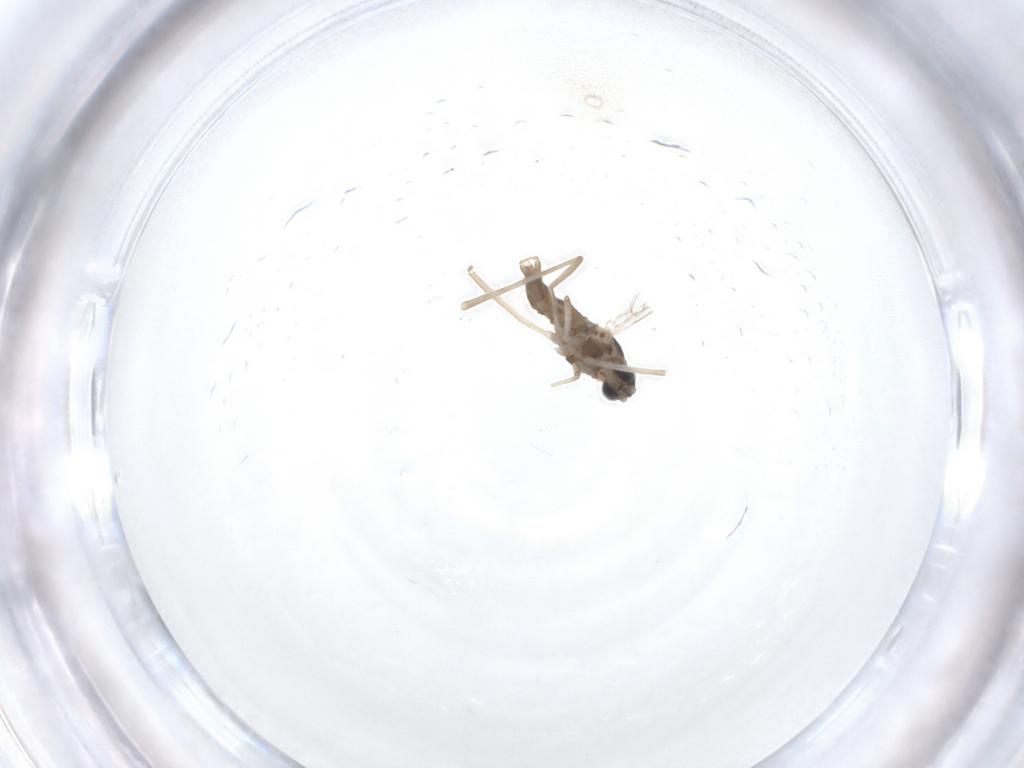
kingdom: Animalia
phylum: Arthropoda
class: Insecta
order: Diptera
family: Cecidomyiidae
